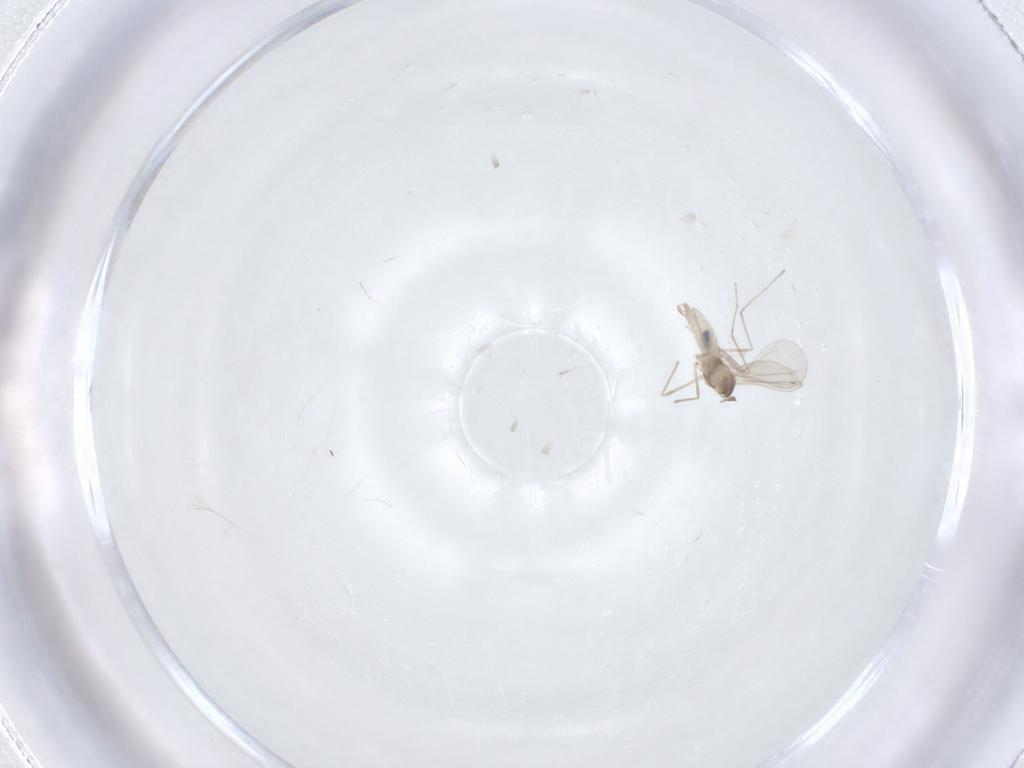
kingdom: Animalia
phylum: Arthropoda
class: Insecta
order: Diptera
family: Chironomidae
